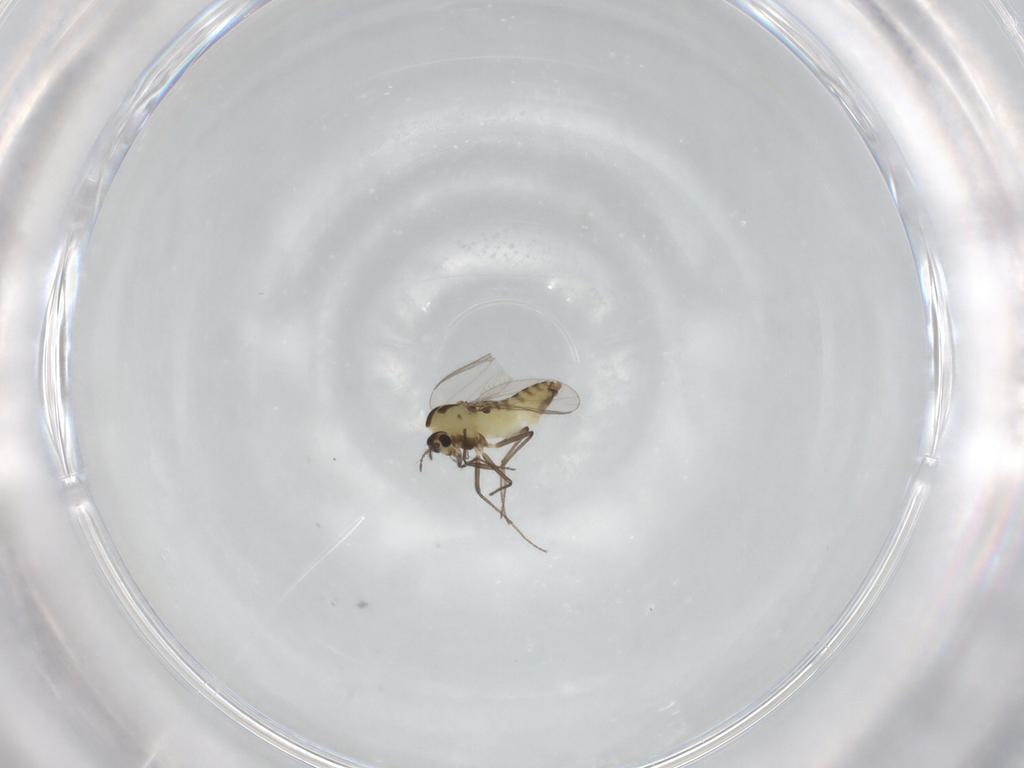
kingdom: Animalia
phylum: Arthropoda
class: Insecta
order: Diptera
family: Chironomidae
